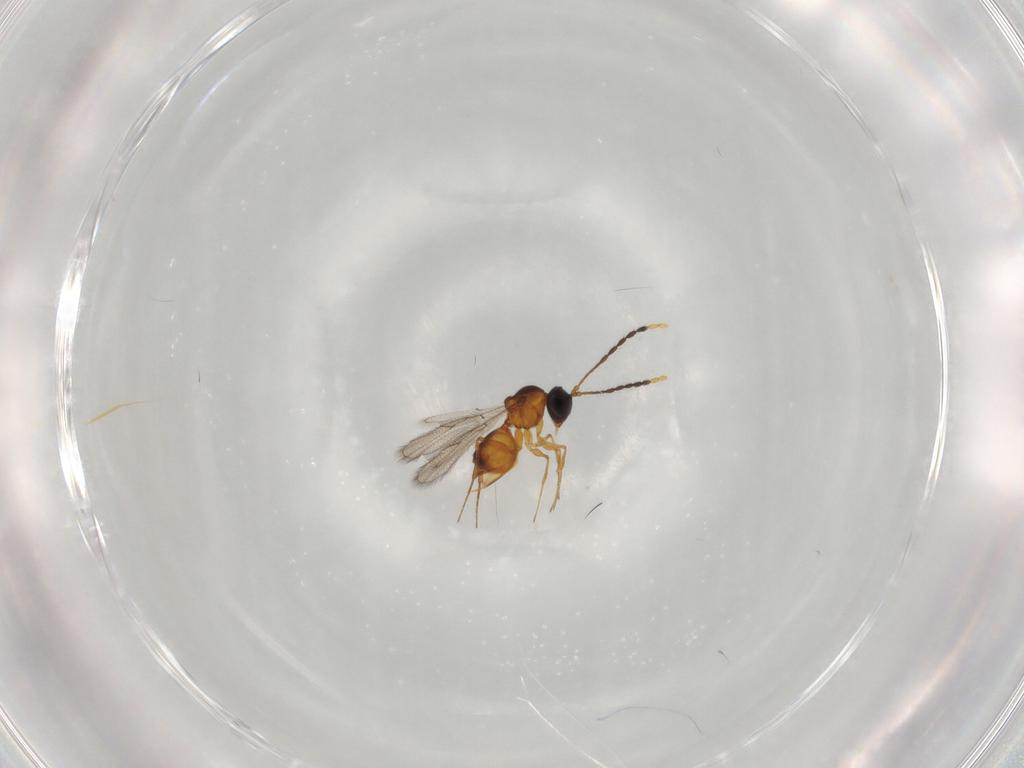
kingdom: Animalia
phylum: Arthropoda
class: Insecta
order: Hymenoptera
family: Figitidae
